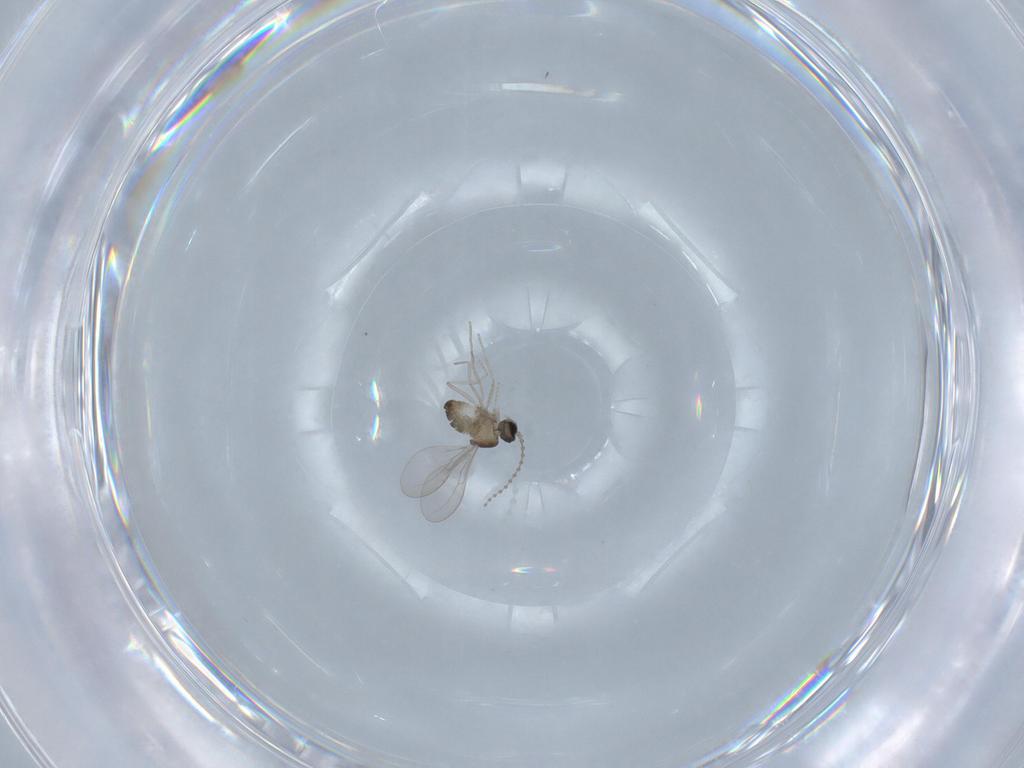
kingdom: Animalia
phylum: Arthropoda
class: Insecta
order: Diptera
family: Cecidomyiidae
